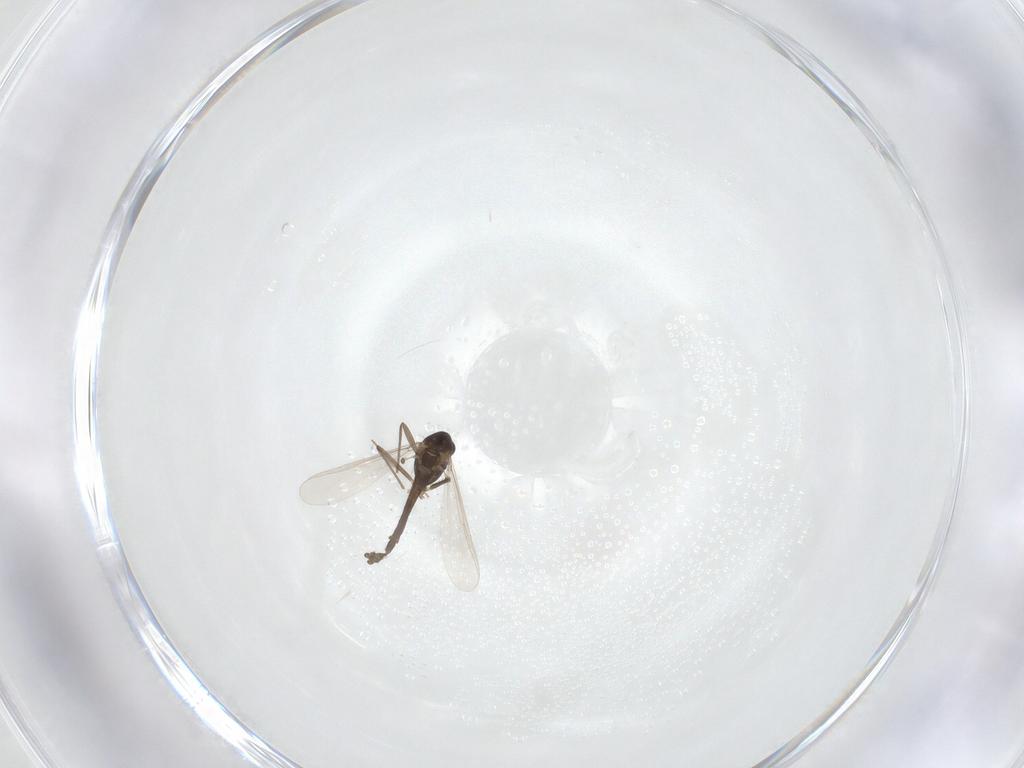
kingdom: Animalia
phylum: Arthropoda
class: Insecta
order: Diptera
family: Chironomidae
